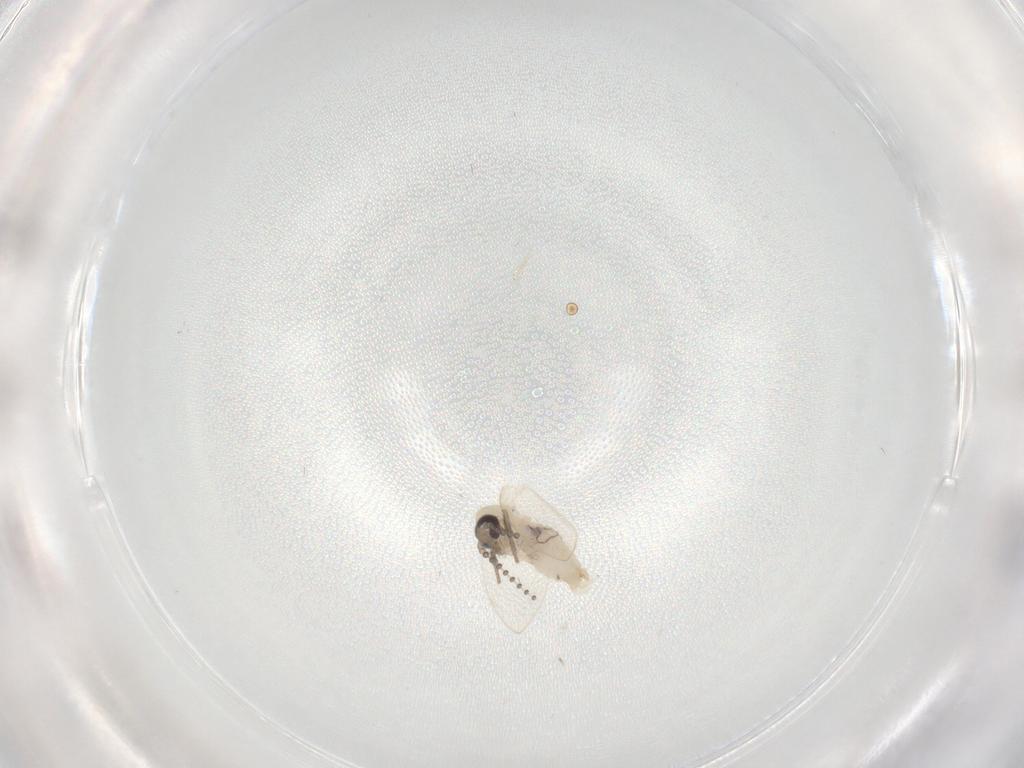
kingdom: Animalia
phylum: Arthropoda
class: Insecta
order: Diptera
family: Psychodidae
